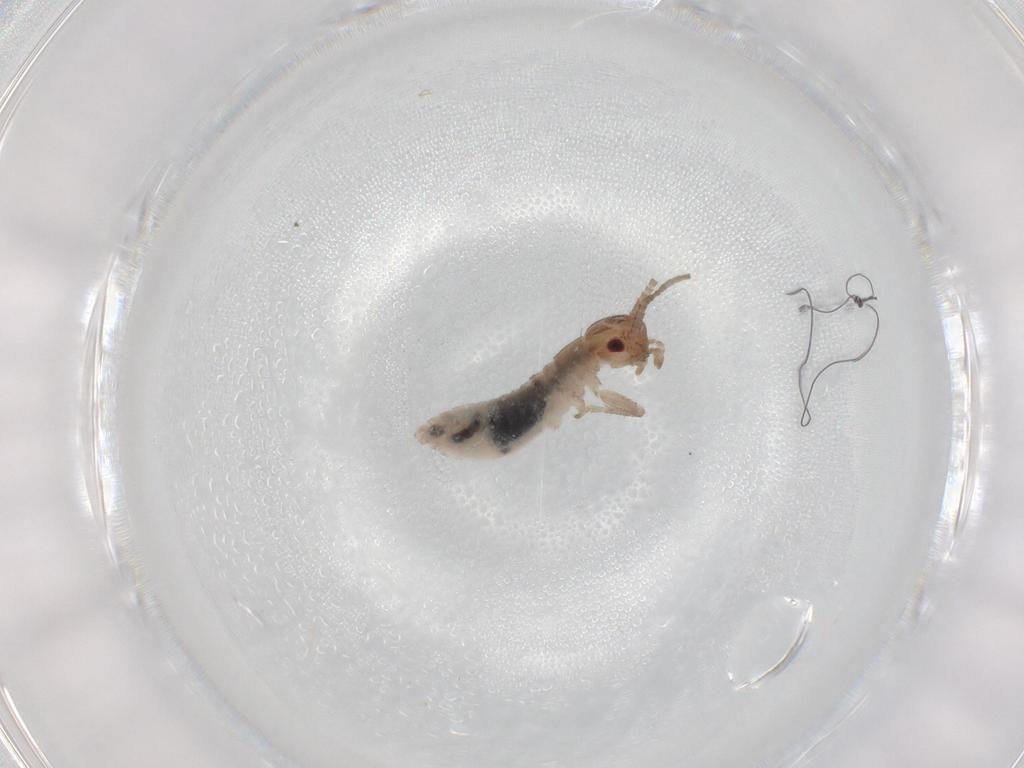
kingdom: Animalia
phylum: Arthropoda
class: Insecta
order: Orthoptera
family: Mogoplistidae
